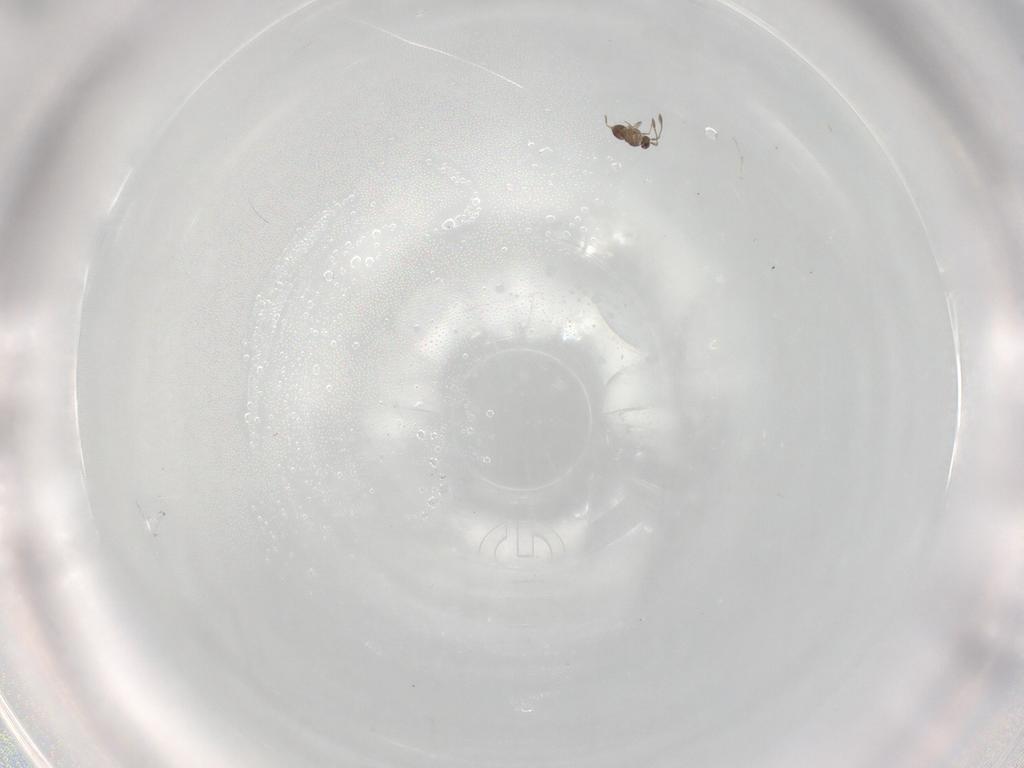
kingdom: Animalia
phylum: Arthropoda
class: Insecta
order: Hymenoptera
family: Mymaridae
